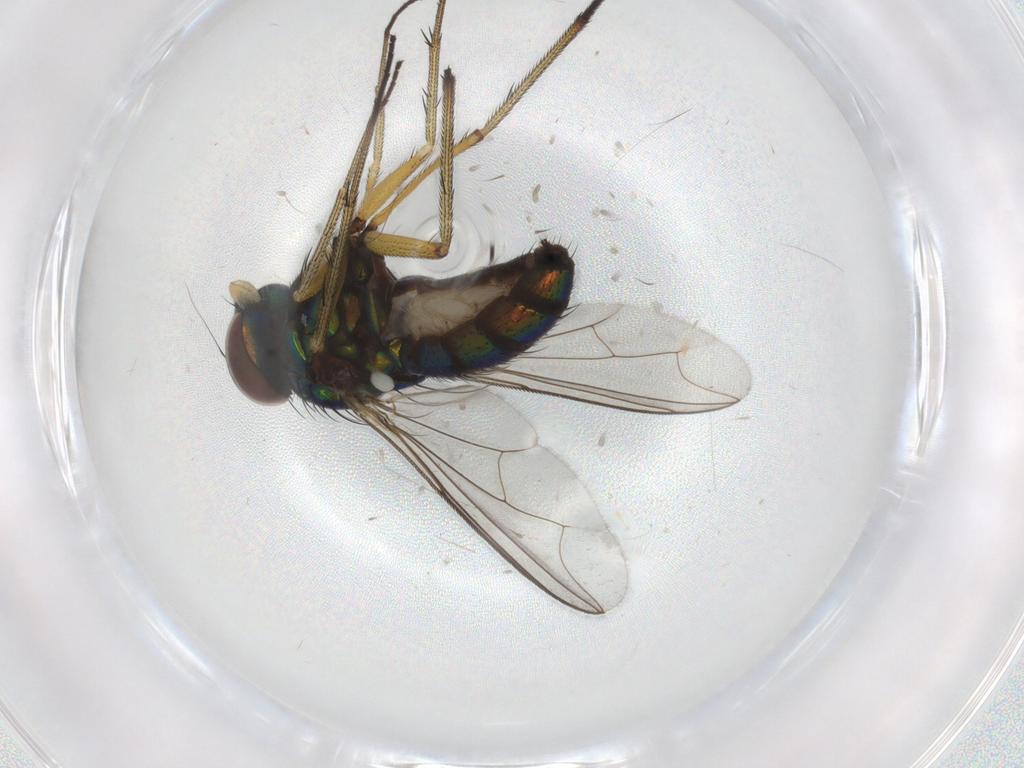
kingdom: Animalia
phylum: Arthropoda
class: Insecta
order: Diptera
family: Dolichopodidae
